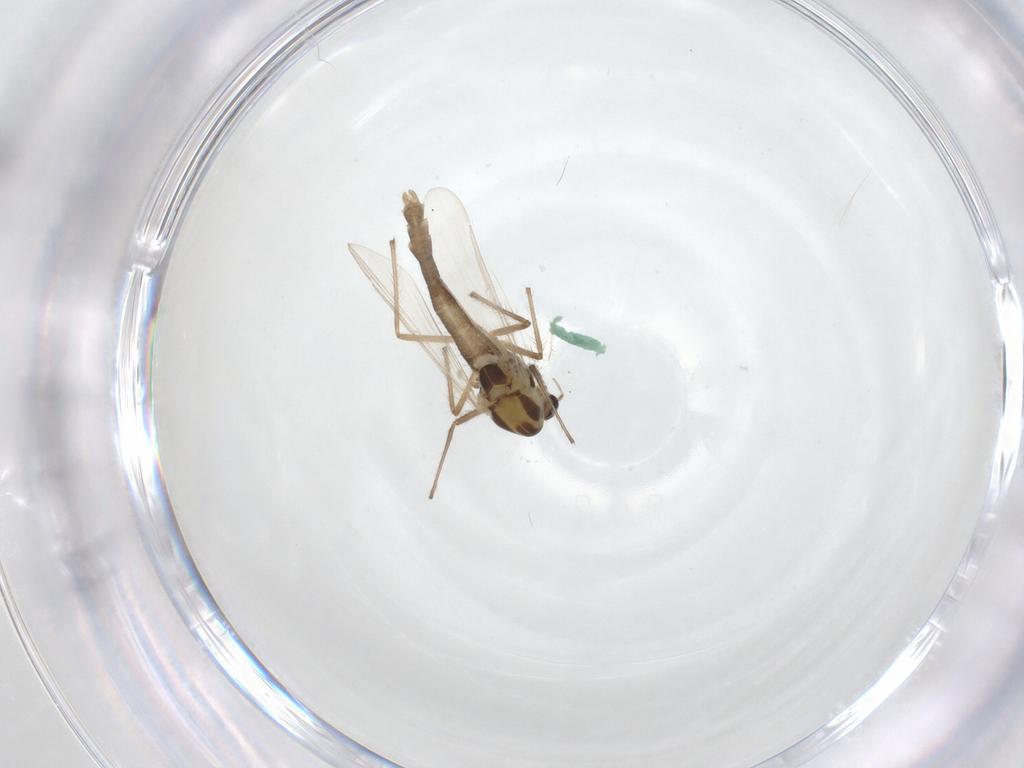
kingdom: Animalia
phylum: Arthropoda
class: Insecta
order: Diptera
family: Chironomidae
